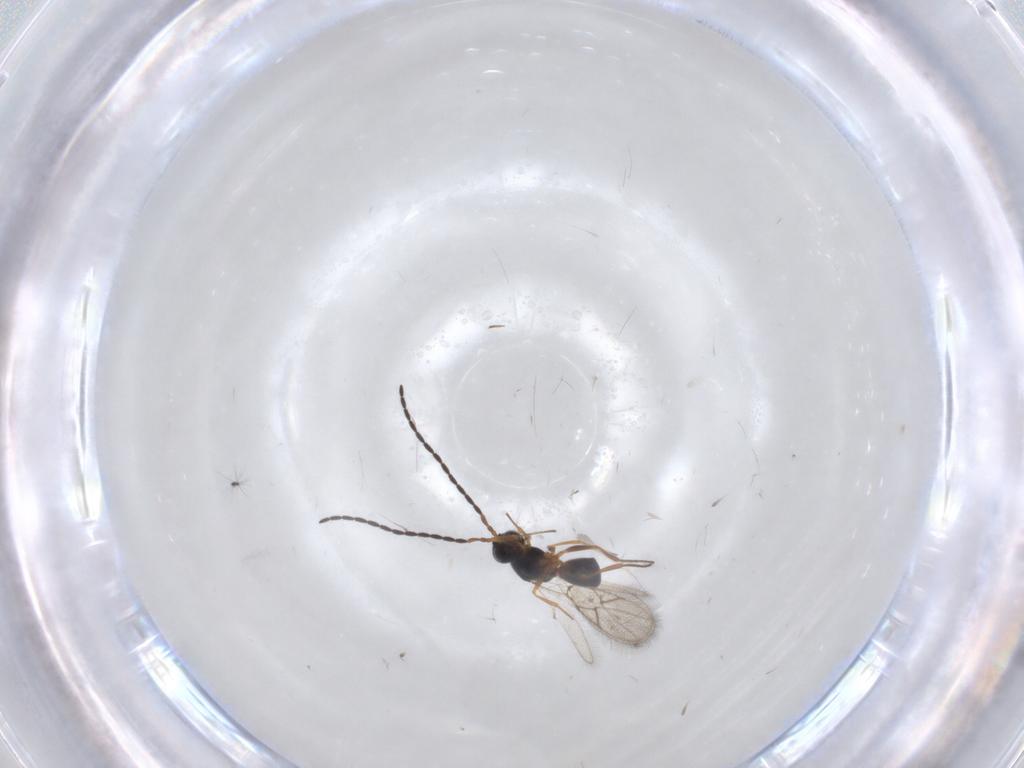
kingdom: Animalia
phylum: Arthropoda
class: Insecta
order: Hymenoptera
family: Figitidae
